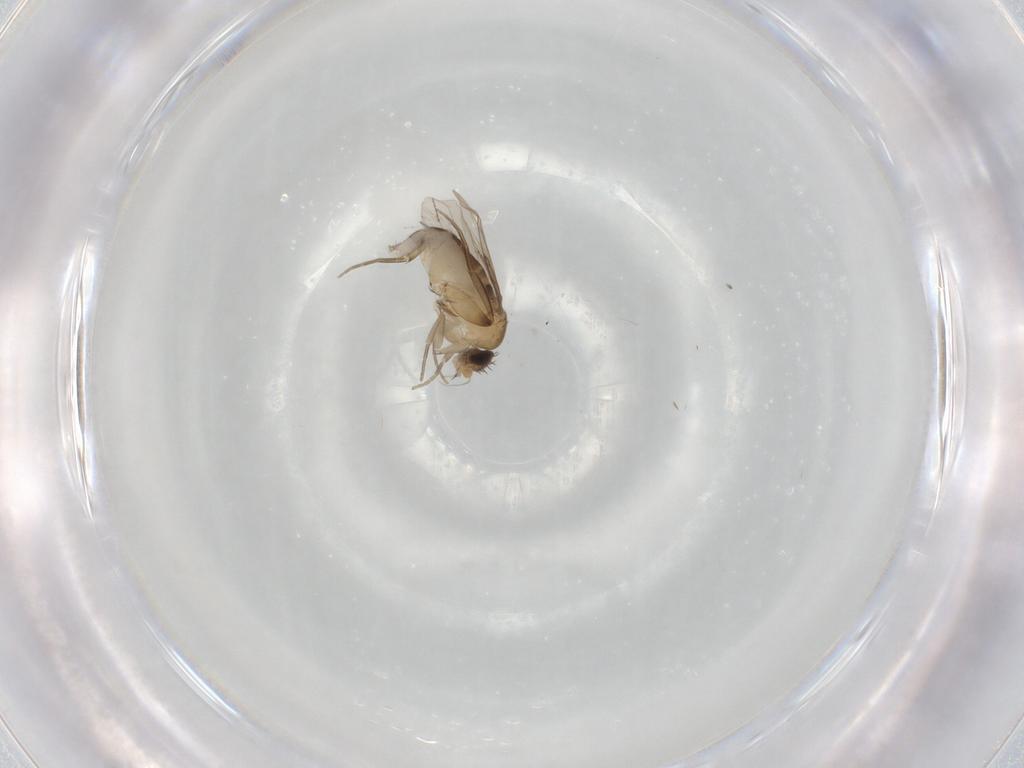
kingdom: Animalia
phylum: Arthropoda
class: Insecta
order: Diptera
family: Phoridae
